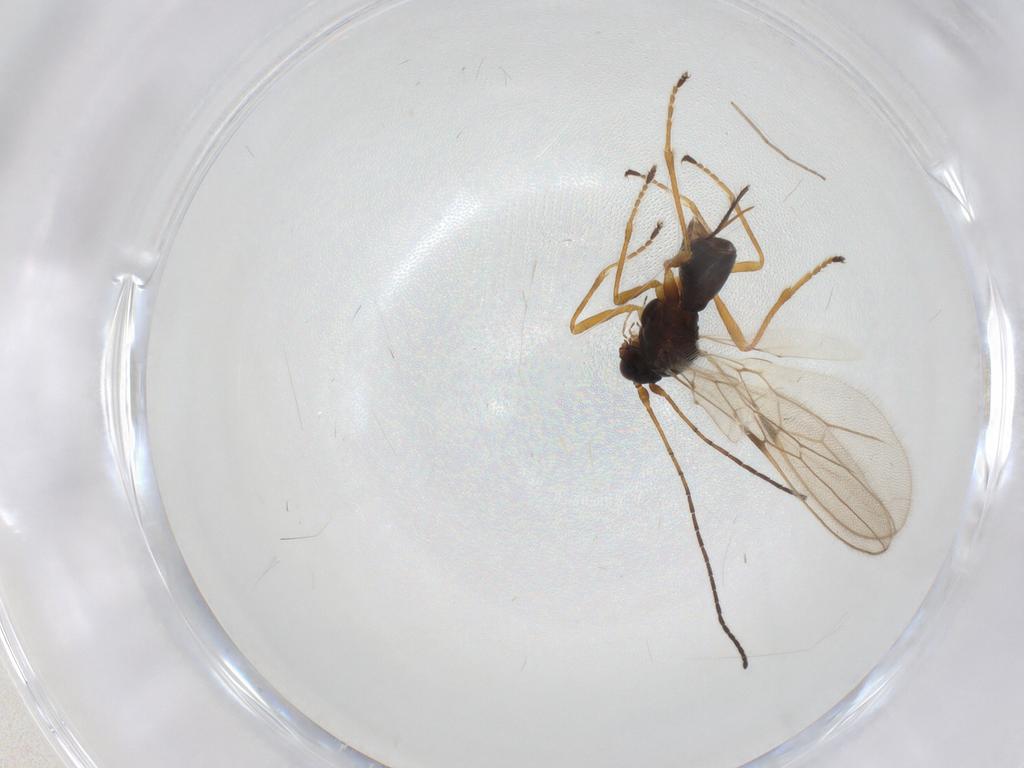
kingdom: Animalia
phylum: Arthropoda
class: Insecta
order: Hymenoptera
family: Braconidae
